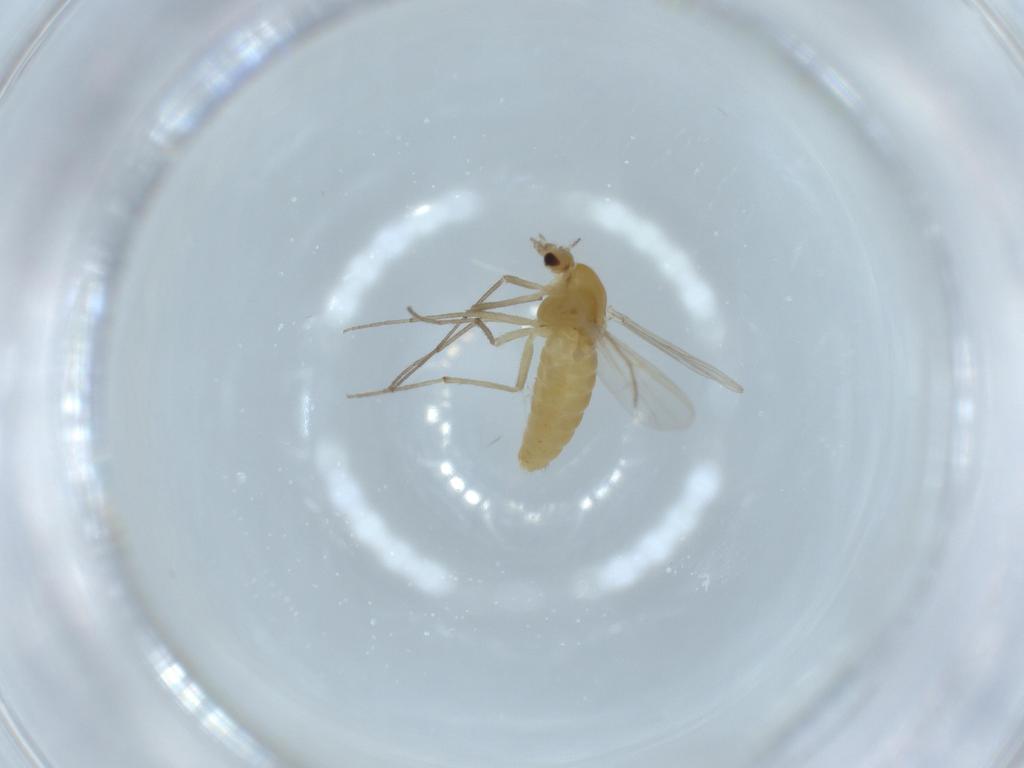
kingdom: Animalia
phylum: Arthropoda
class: Insecta
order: Diptera
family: Chironomidae
